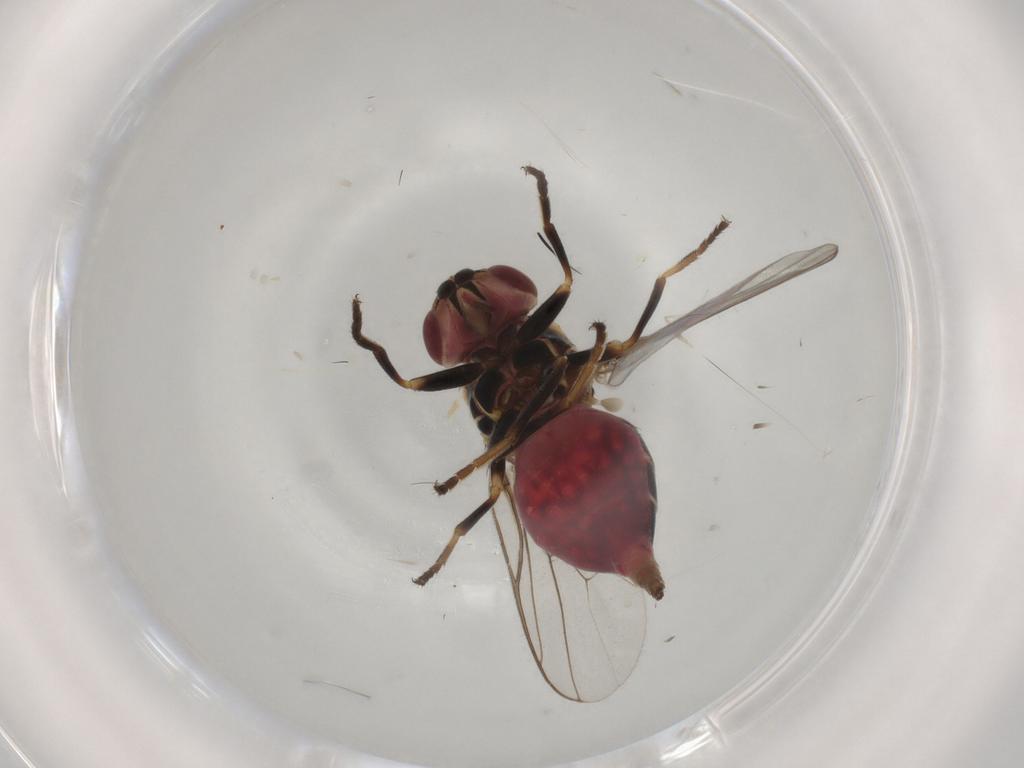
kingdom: Animalia
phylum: Arthropoda
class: Insecta
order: Diptera
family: Chloropidae
